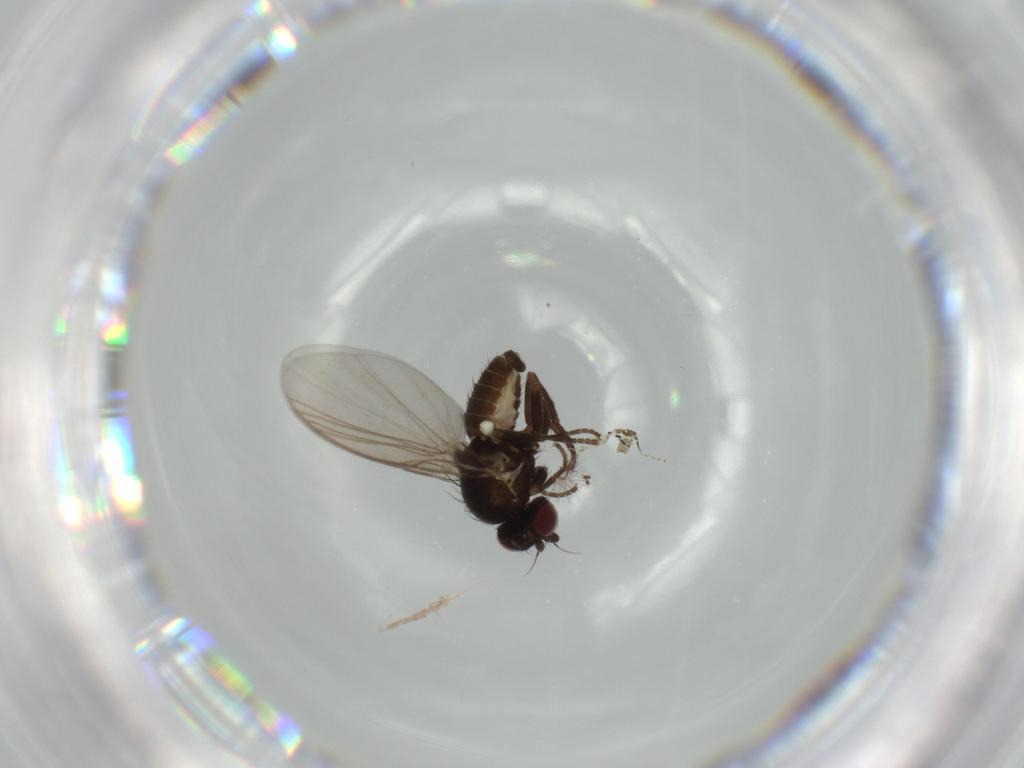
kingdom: Animalia
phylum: Arthropoda
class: Insecta
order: Diptera
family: Agromyzidae
